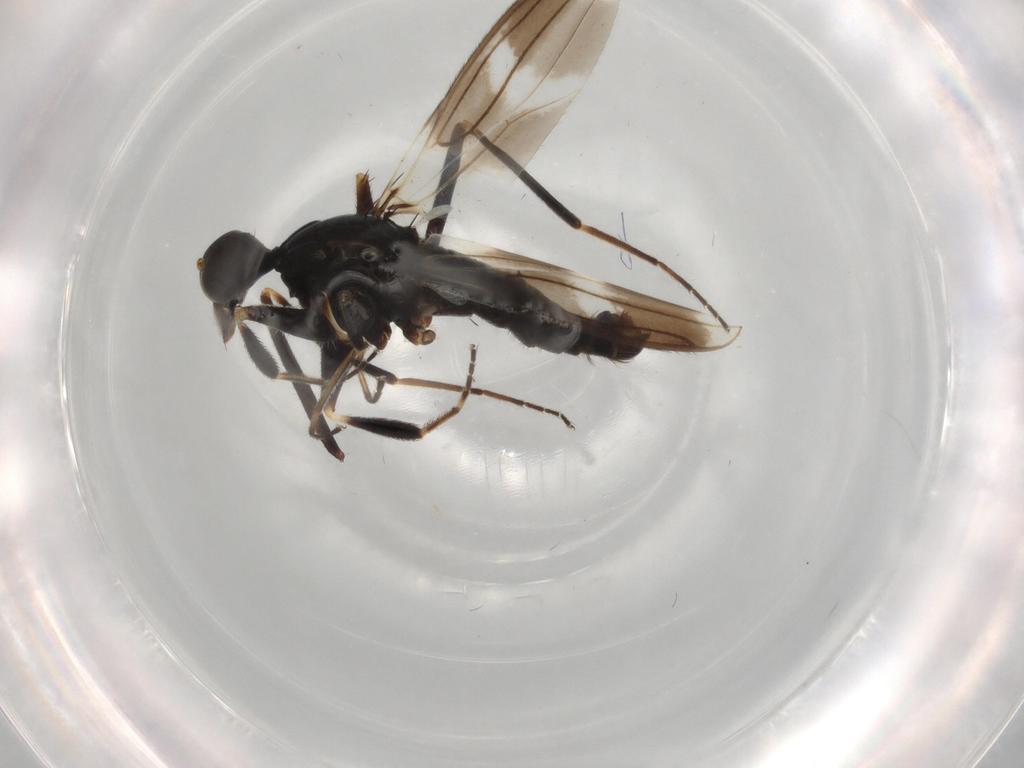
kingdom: Animalia
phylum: Arthropoda
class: Insecta
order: Diptera
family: Hybotidae
